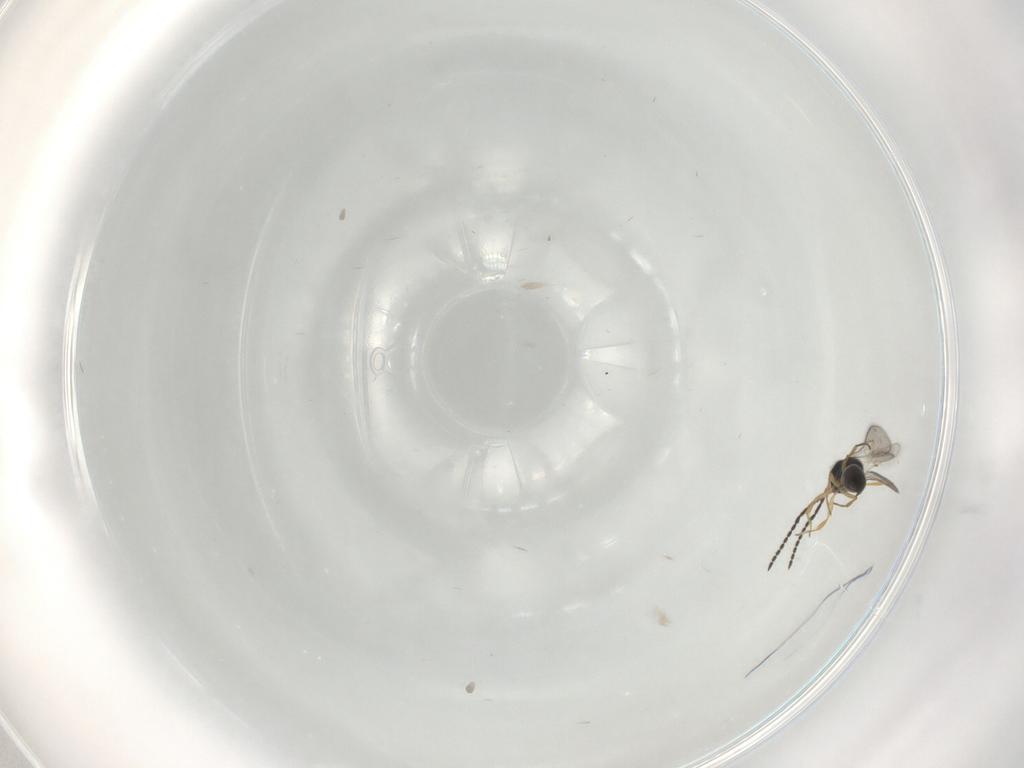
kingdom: Animalia
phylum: Arthropoda
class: Insecta
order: Hymenoptera
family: Scelionidae
